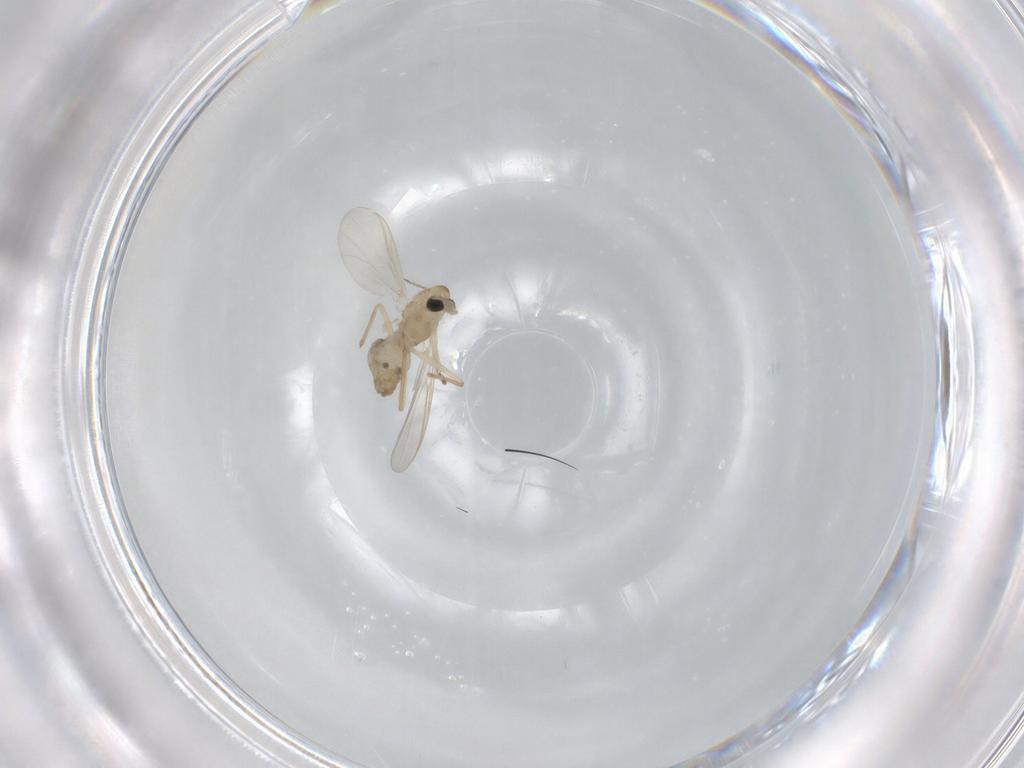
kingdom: Animalia
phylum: Arthropoda
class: Insecta
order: Diptera
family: Chironomidae
